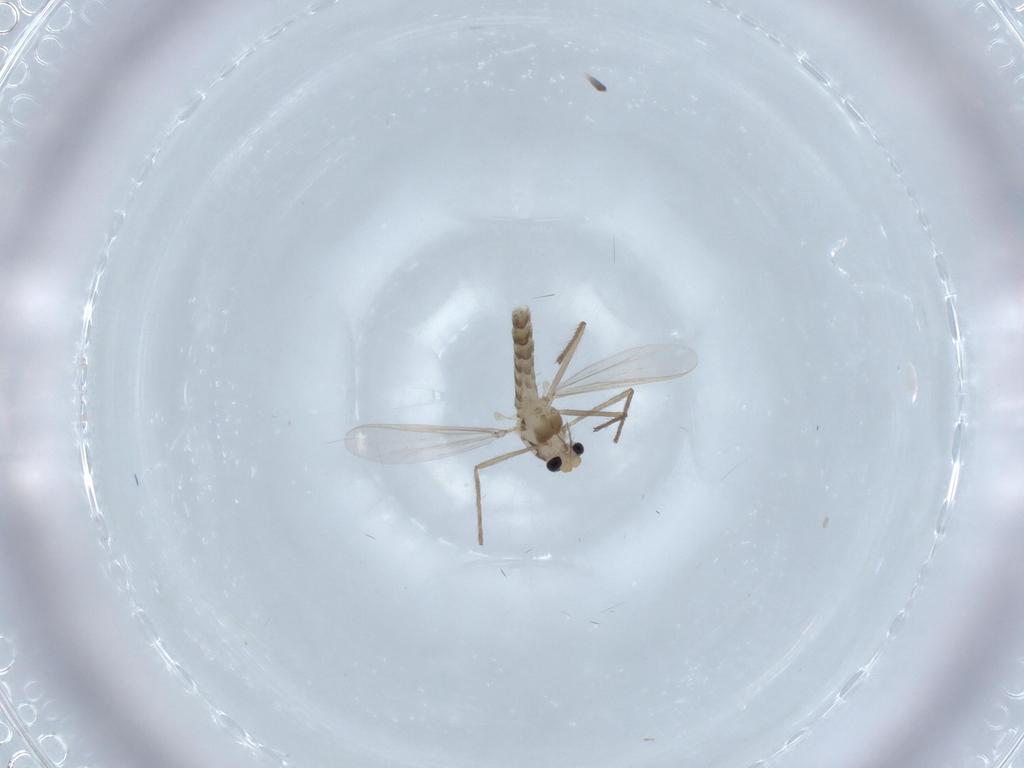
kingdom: Animalia
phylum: Arthropoda
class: Insecta
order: Diptera
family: Chironomidae
